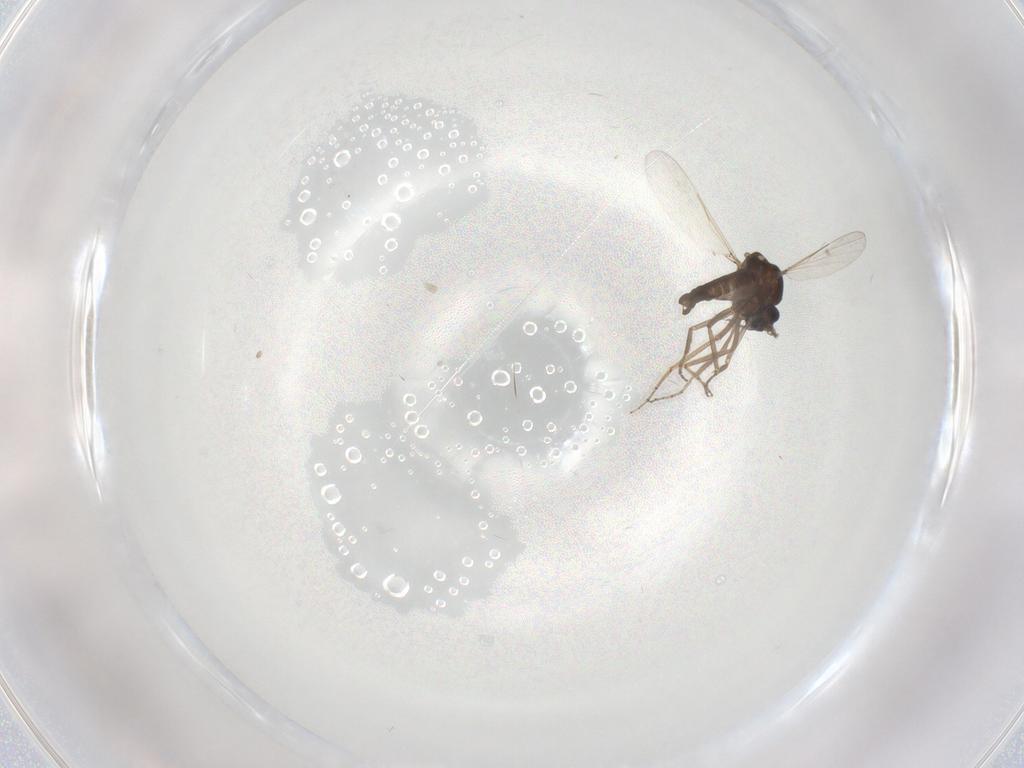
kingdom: Animalia
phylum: Arthropoda
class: Insecta
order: Diptera
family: Ceratopogonidae
